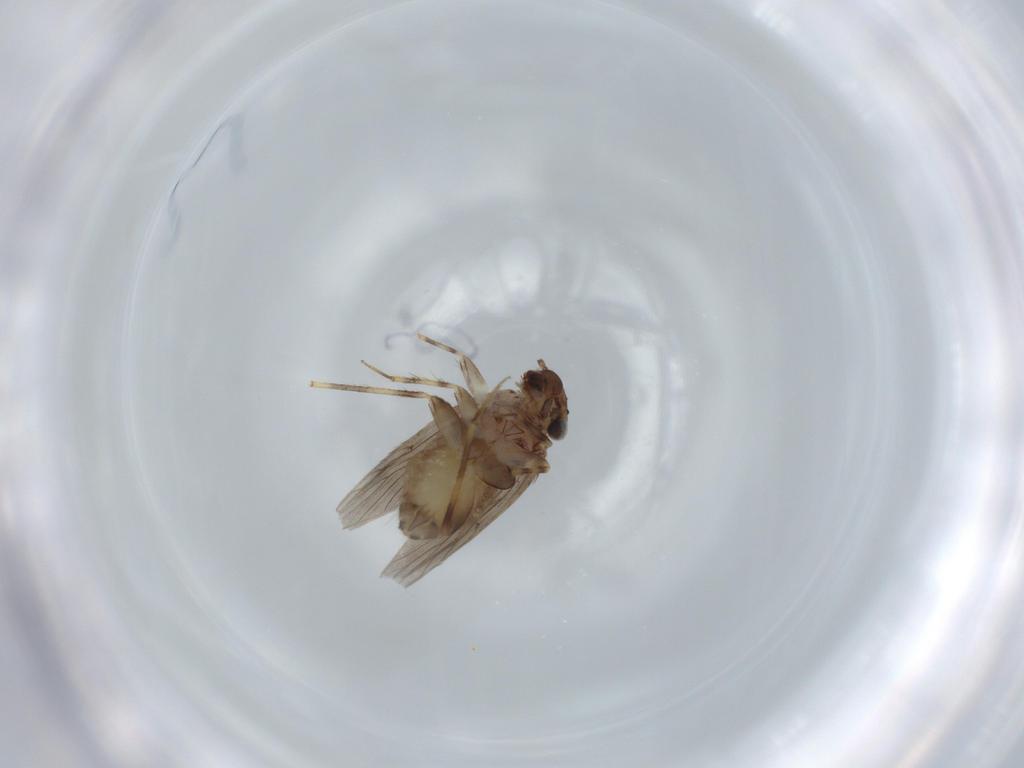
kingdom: Animalia
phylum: Arthropoda
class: Insecta
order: Psocodea
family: Lepidopsocidae
